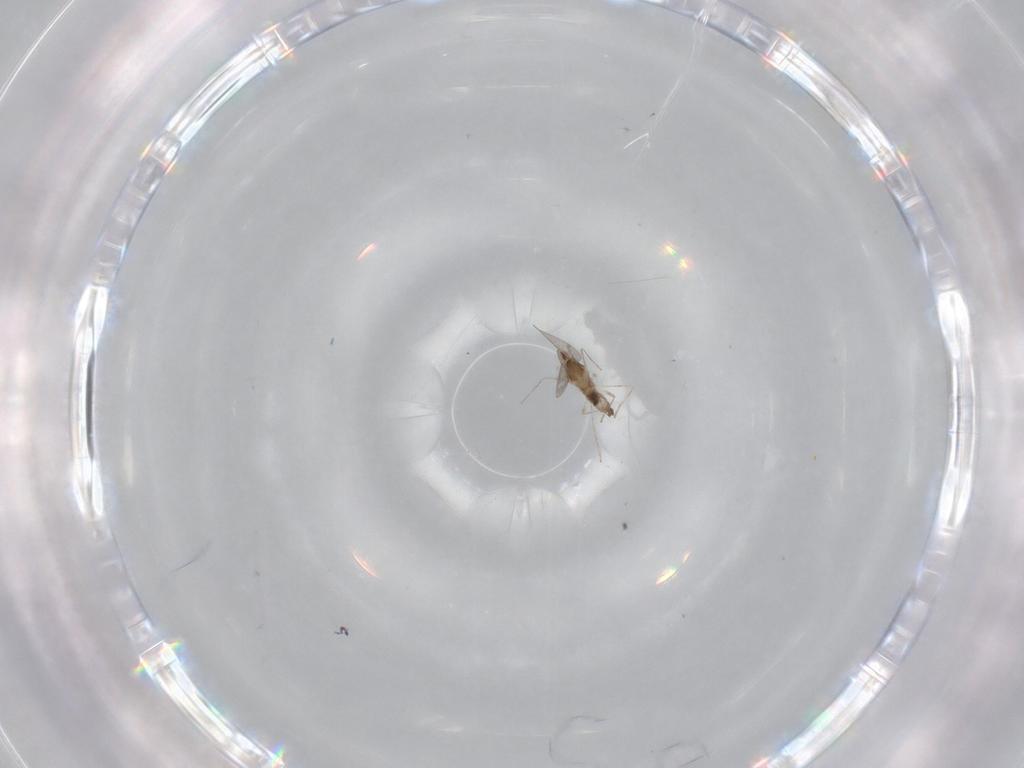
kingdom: Animalia
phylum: Arthropoda
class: Insecta
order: Diptera
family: Cecidomyiidae
